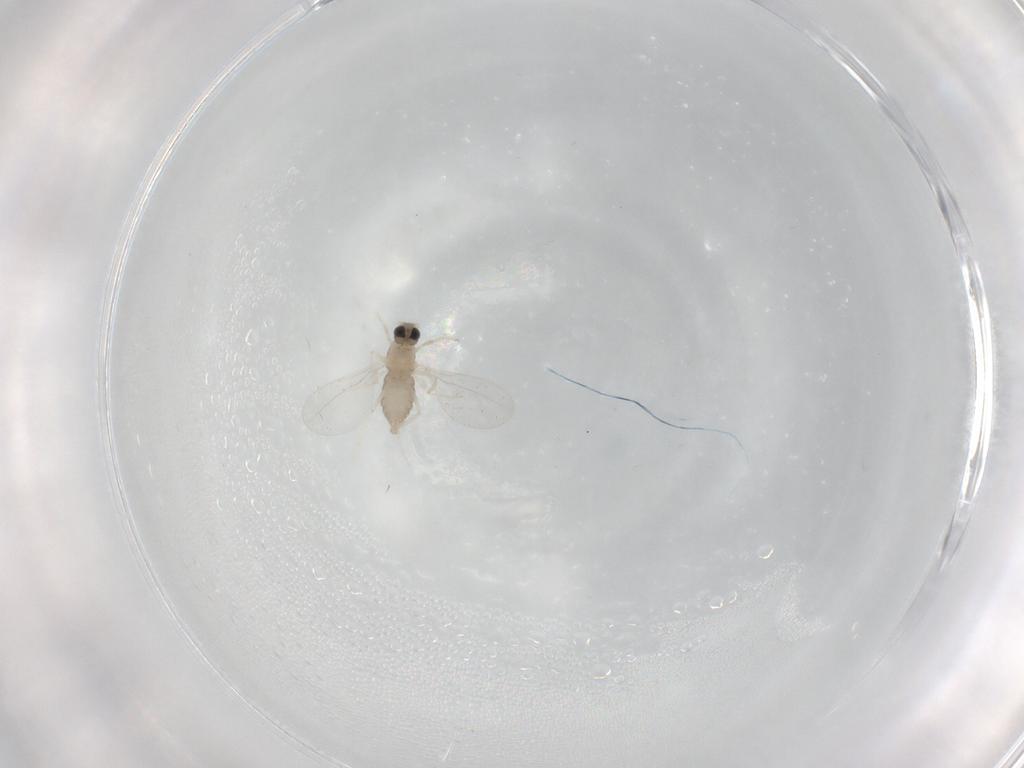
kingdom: Animalia
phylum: Arthropoda
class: Insecta
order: Diptera
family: Cecidomyiidae
